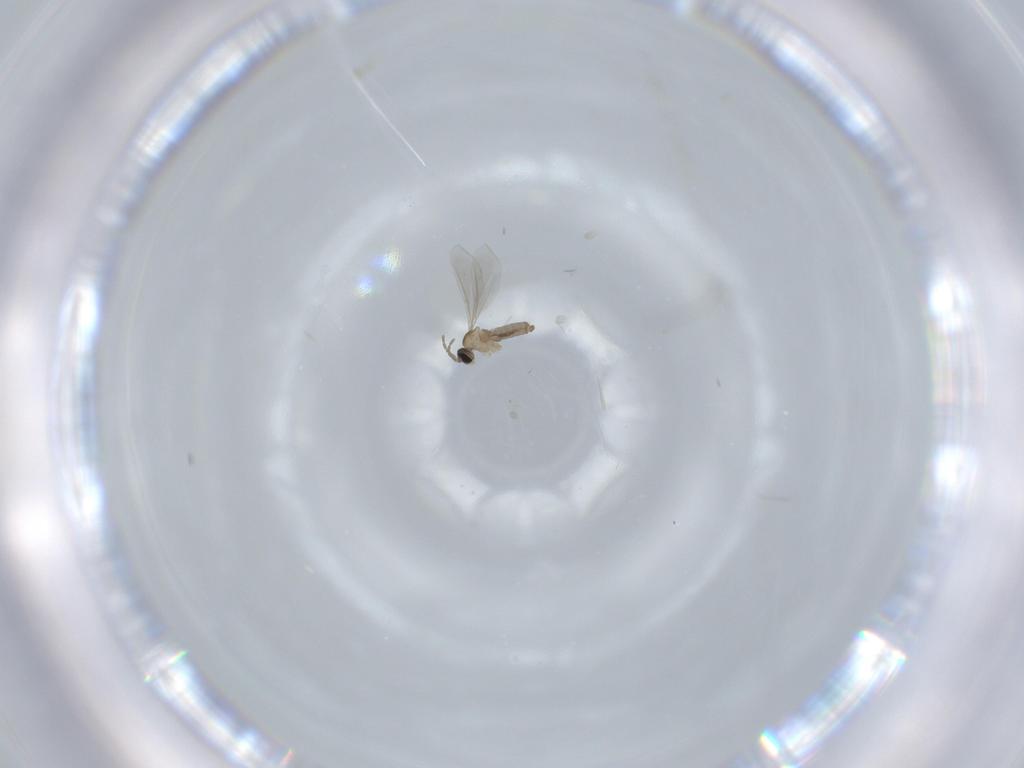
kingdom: Animalia
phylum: Arthropoda
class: Insecta
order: Diptera
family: Cecidomyiidae
